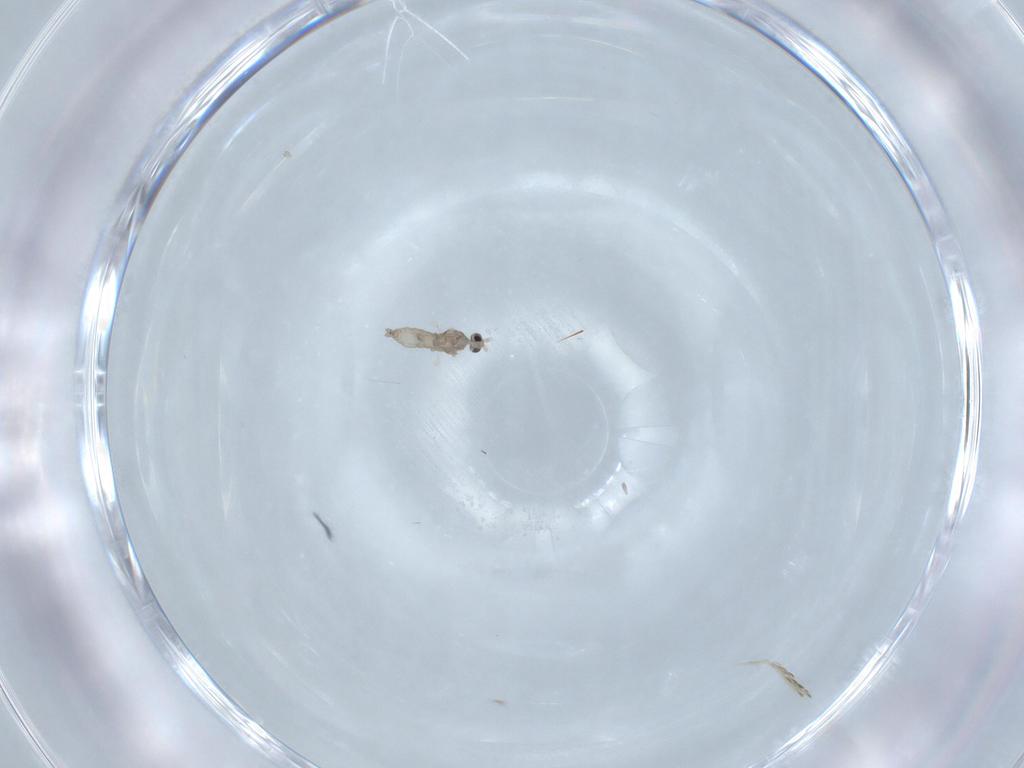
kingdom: Animalia
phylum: Arthropoda
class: Insecta
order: Diptera
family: Cecidomyiidae
